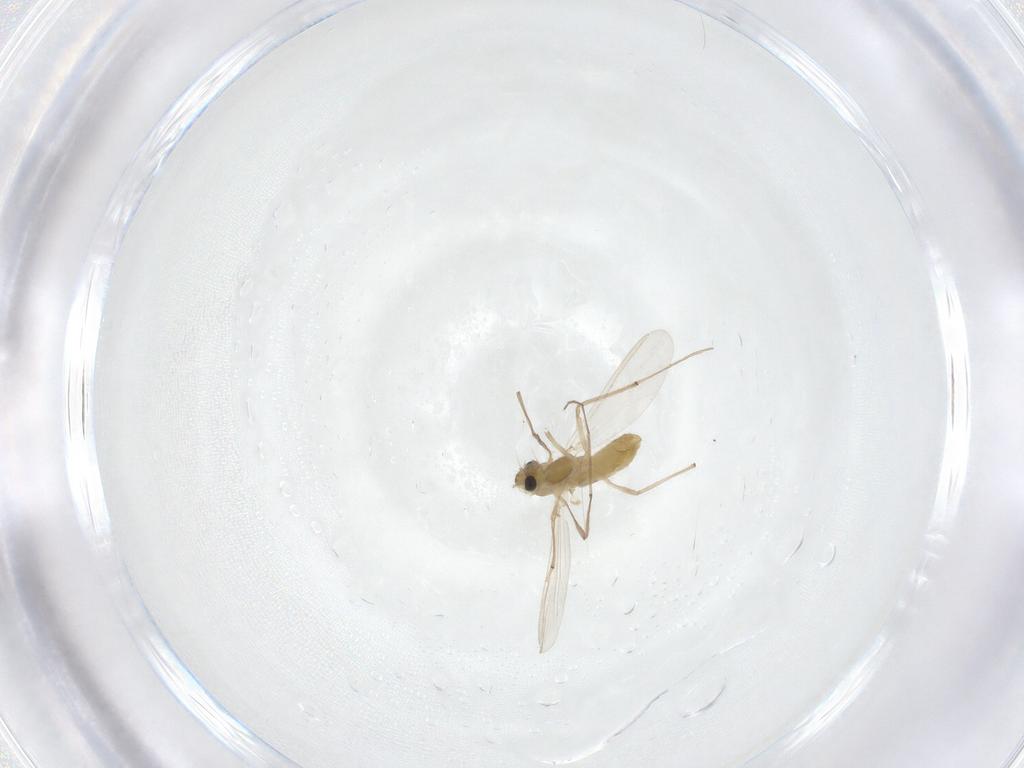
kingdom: Animalia
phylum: Arthropoda
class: Insecta
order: Diptera
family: Chironomidae
